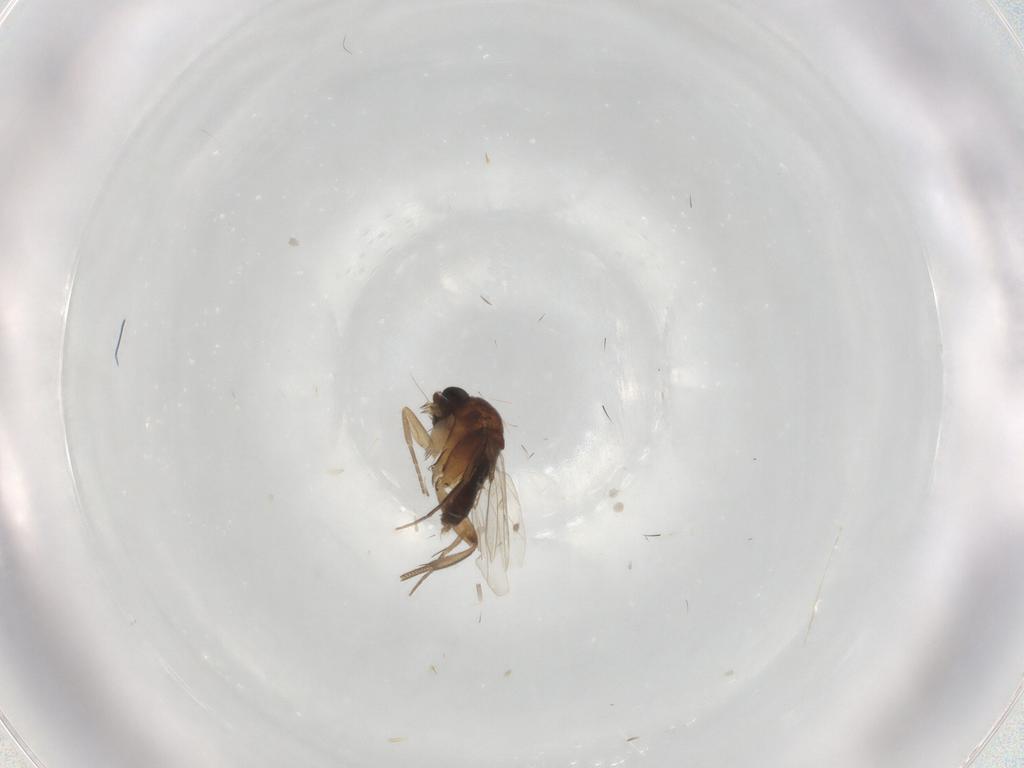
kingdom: Animalia
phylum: Arthropoda
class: Insecta
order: Diptera
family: Phoridae
